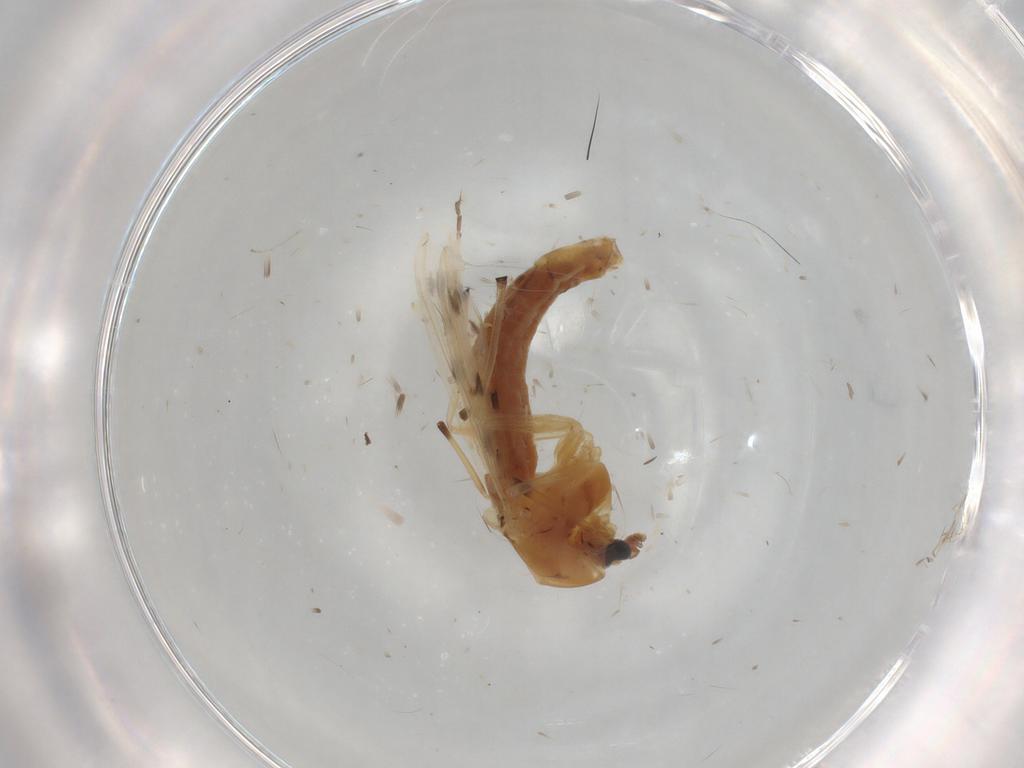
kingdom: Animalia
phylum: Arthropoda
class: Insecta
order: Diptera
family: Chironomidae
